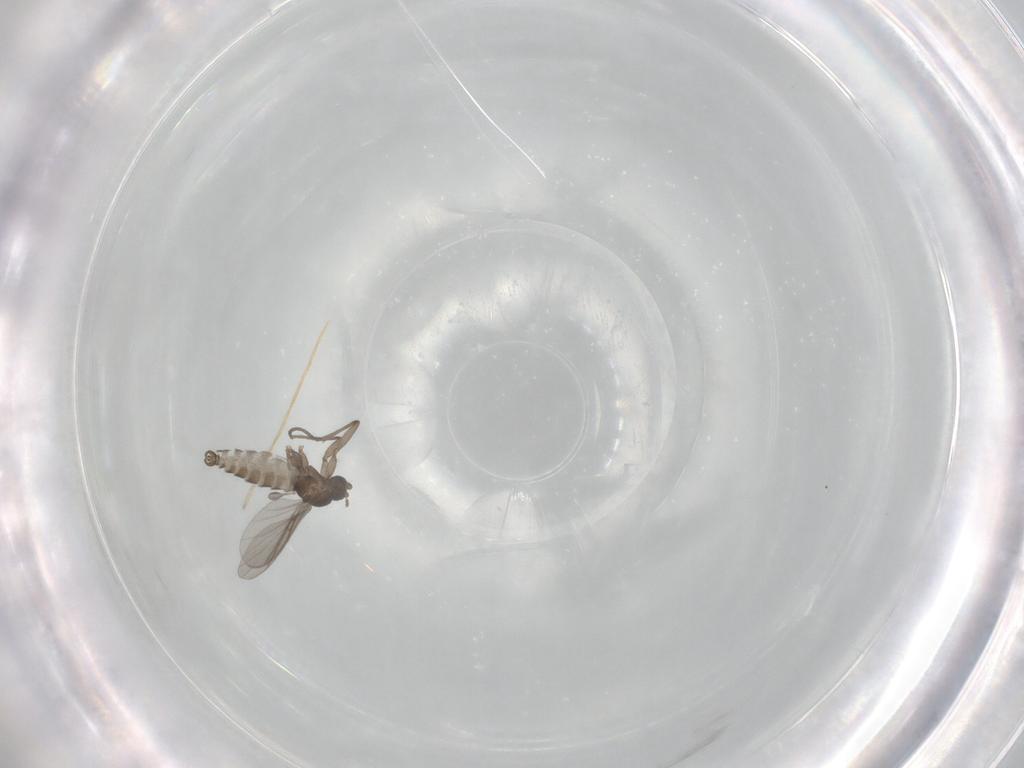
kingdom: Animalia
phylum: Arthropoda
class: Insecta
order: Diptera
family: Sciaridae
